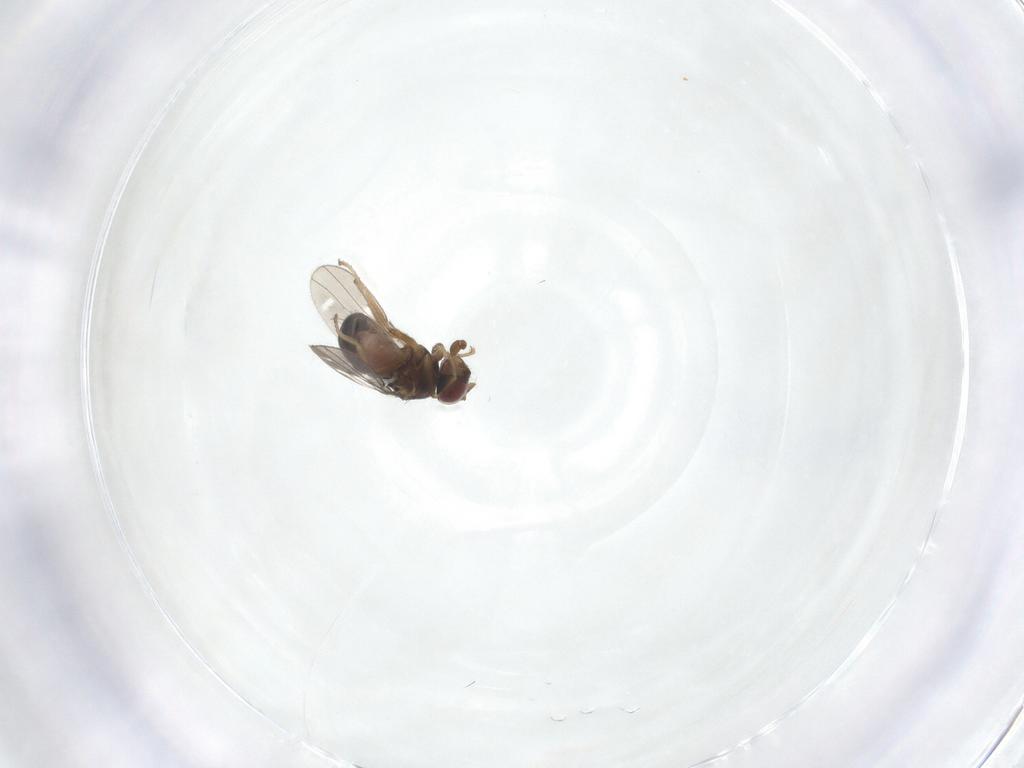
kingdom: Animalia
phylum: Arthropoda
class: Insecta
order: Diptera
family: Ephydridae
